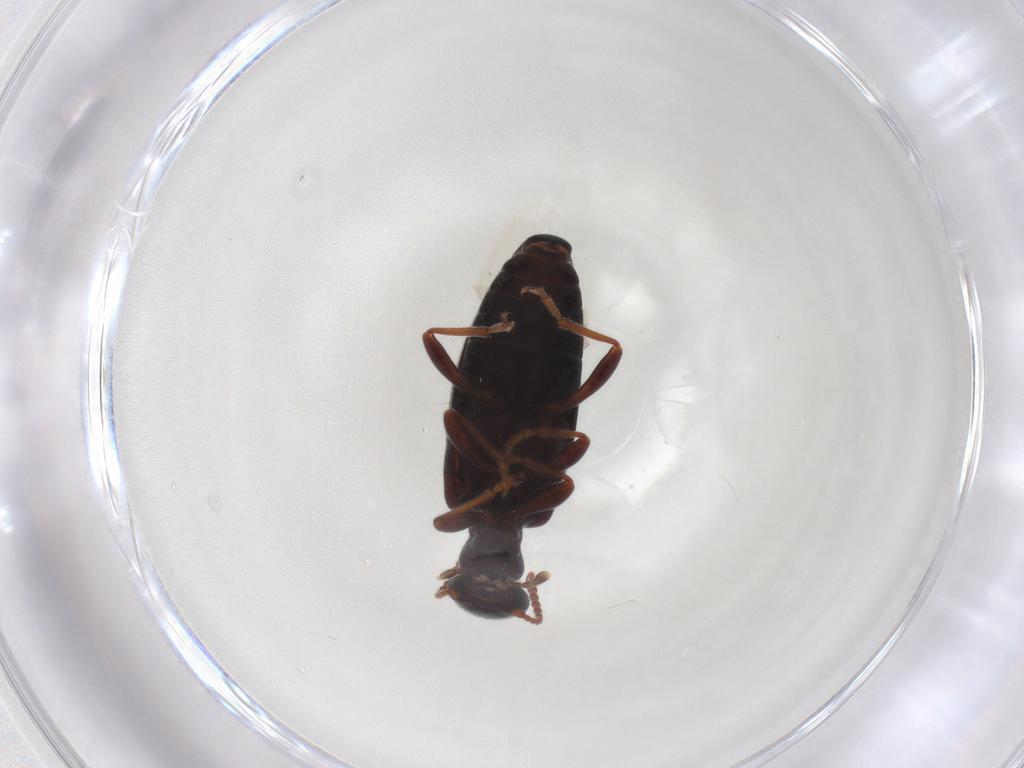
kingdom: Animalia
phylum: Arthropoda
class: Insecta
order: Coleoptera
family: Anthicidae
